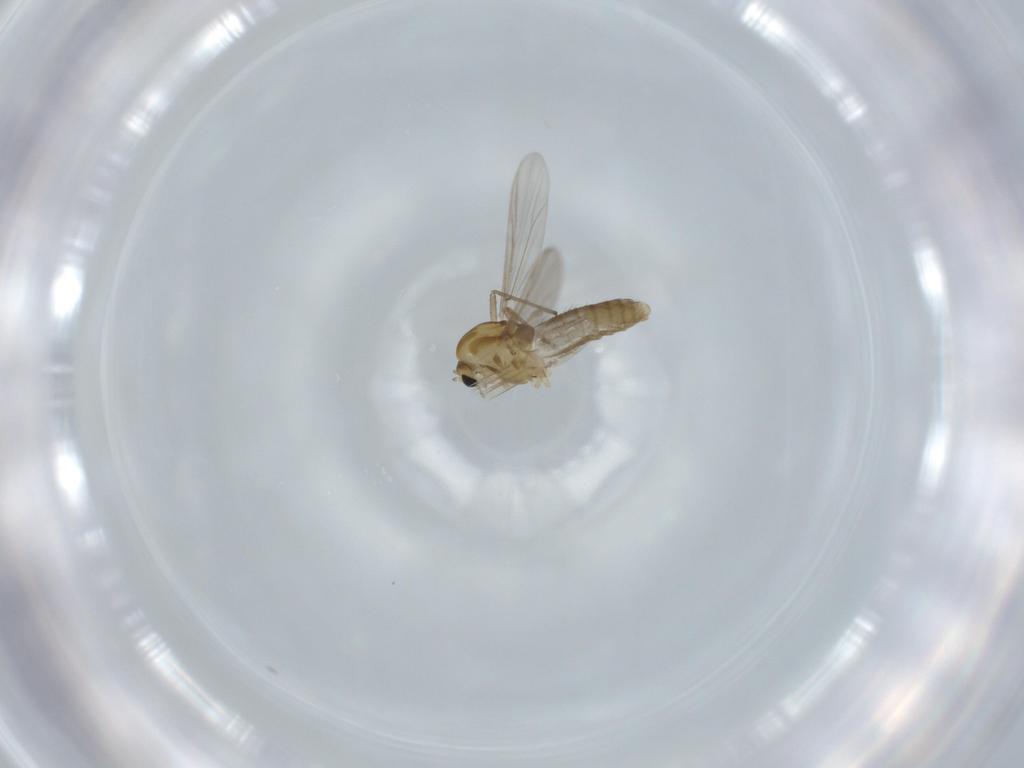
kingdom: Animalia
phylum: Arthropoda
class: Insecta
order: Diptera
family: Chironomidae
